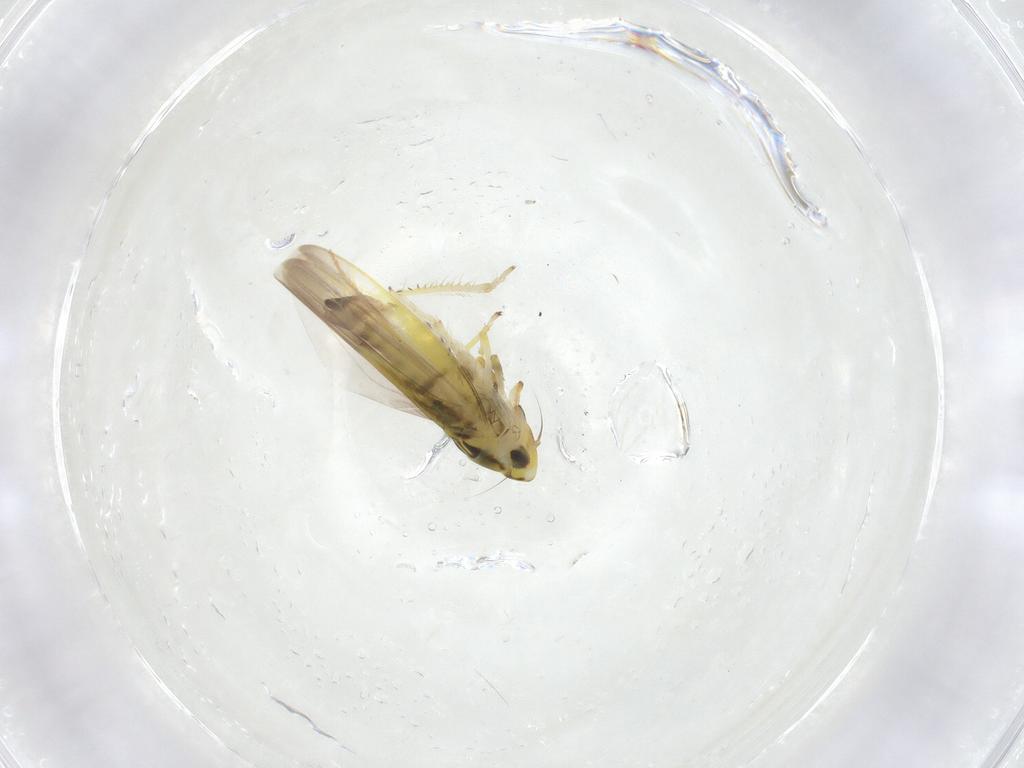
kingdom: Animalia
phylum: Arthropoda
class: Insecta
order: Hemiptera
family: Cicadellidae
